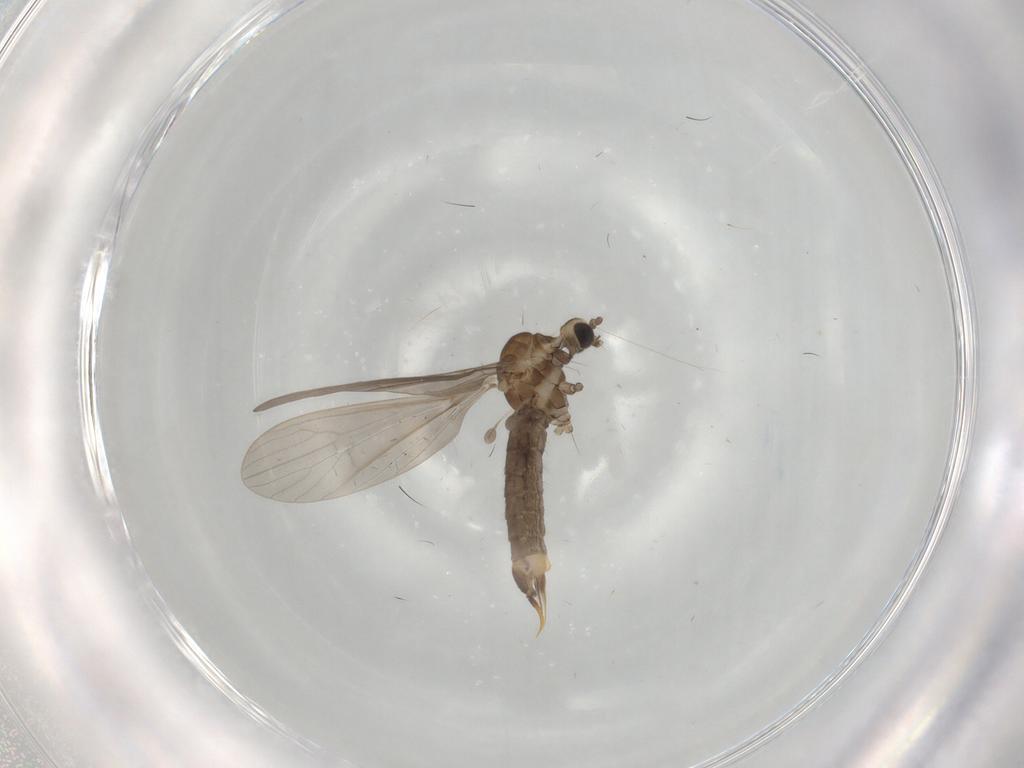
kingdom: Animalia
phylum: Arthropoda
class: Insecta
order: Diptera
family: Limoniidae
